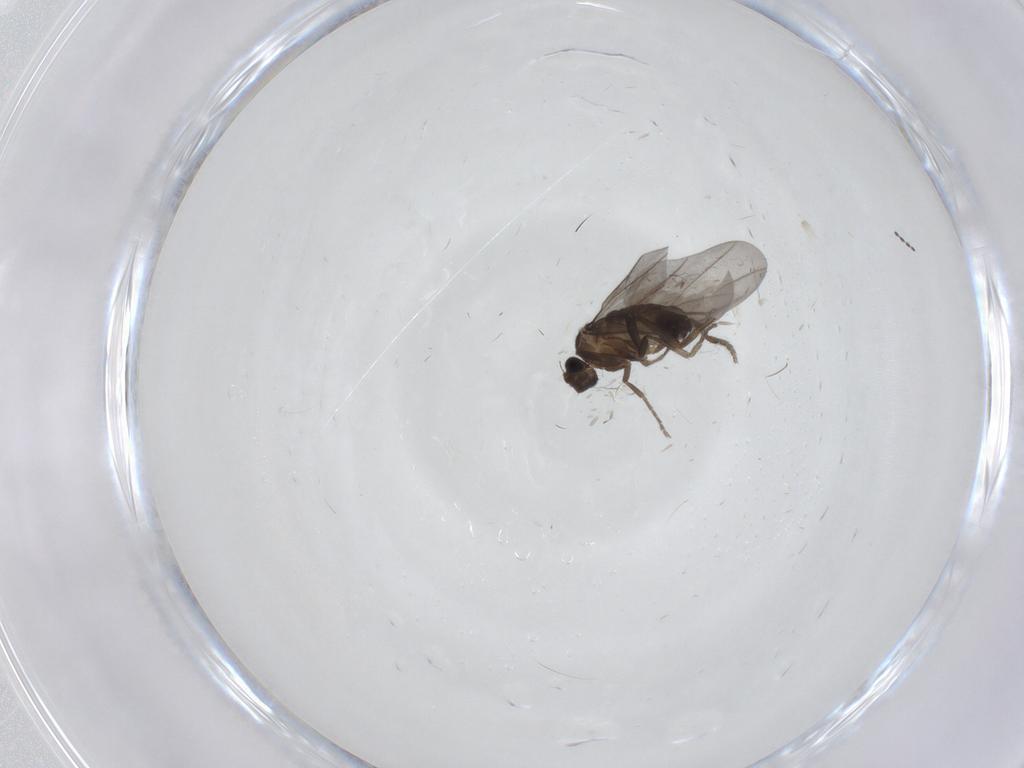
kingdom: Animalia
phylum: Arthropoda
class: Insecta
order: Diptera
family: Phoridae
